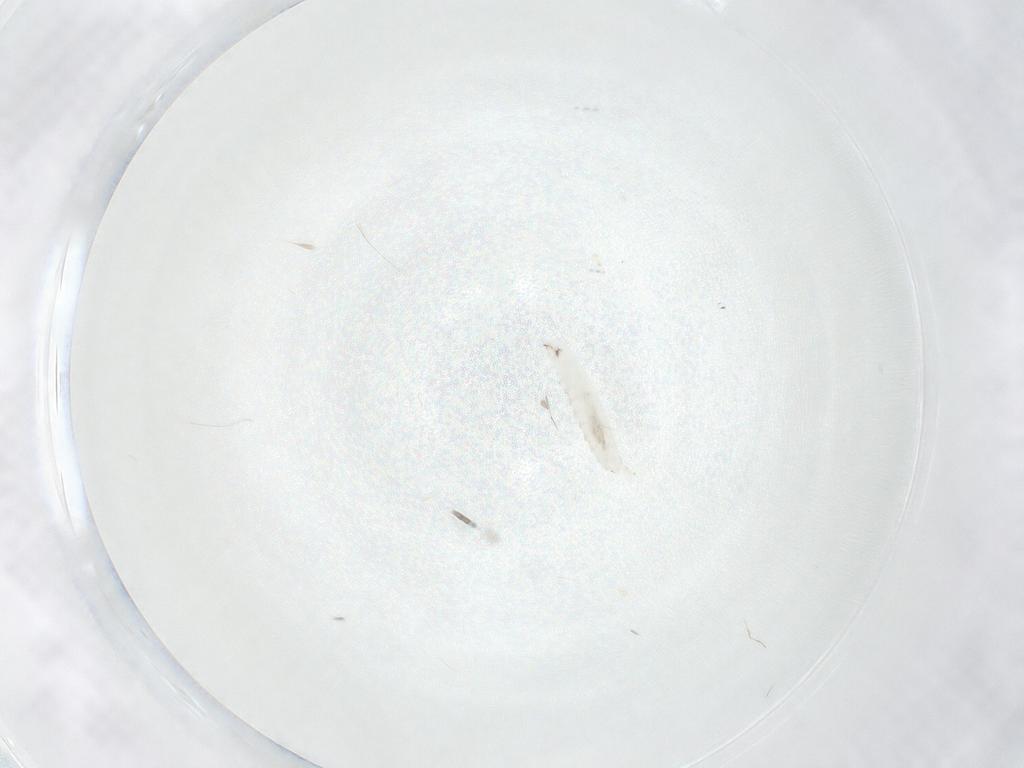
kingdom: Animalia
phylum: Arthropoda
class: Insecta
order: Diptera
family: Drosophilidae
